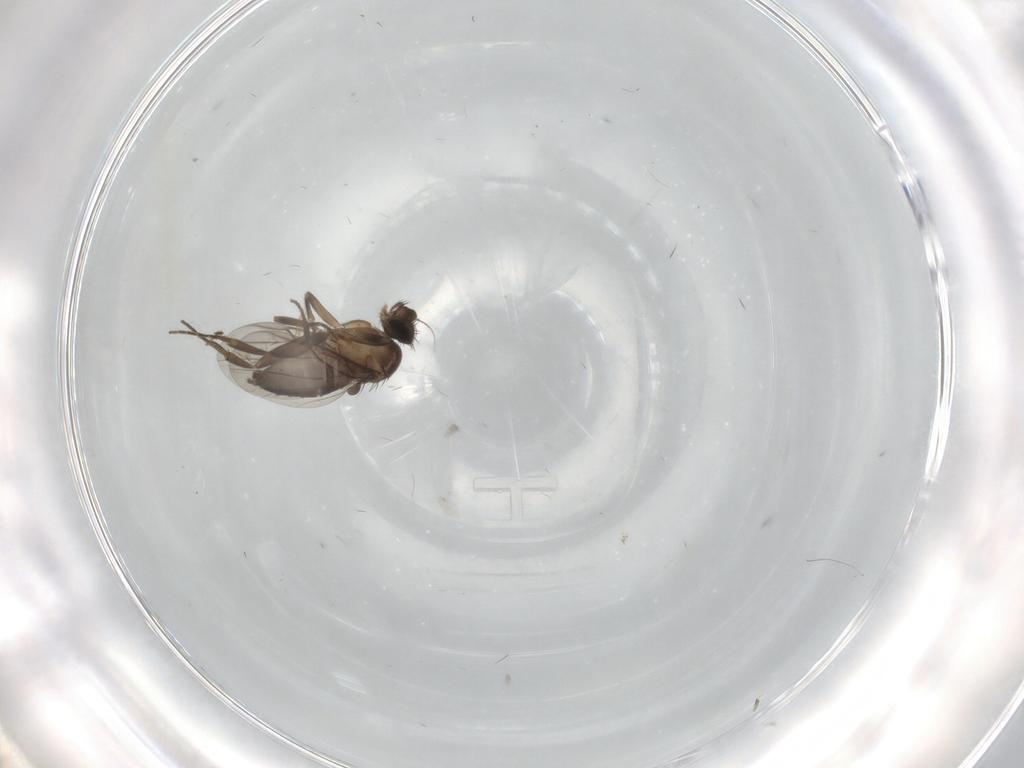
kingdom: Animalia
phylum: Arthropoda
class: Insecta
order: Diptera
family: Phoridae
